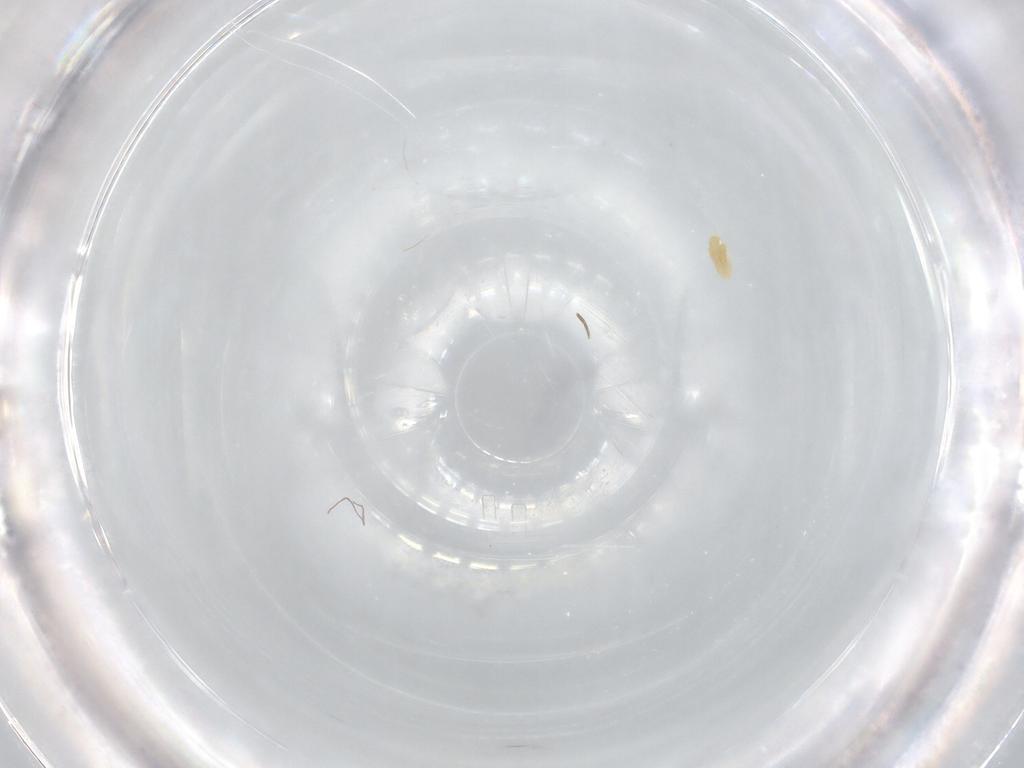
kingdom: Animalia
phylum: Arthropoda
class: Arachnida
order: Trombidiformes
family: Eupodidae
